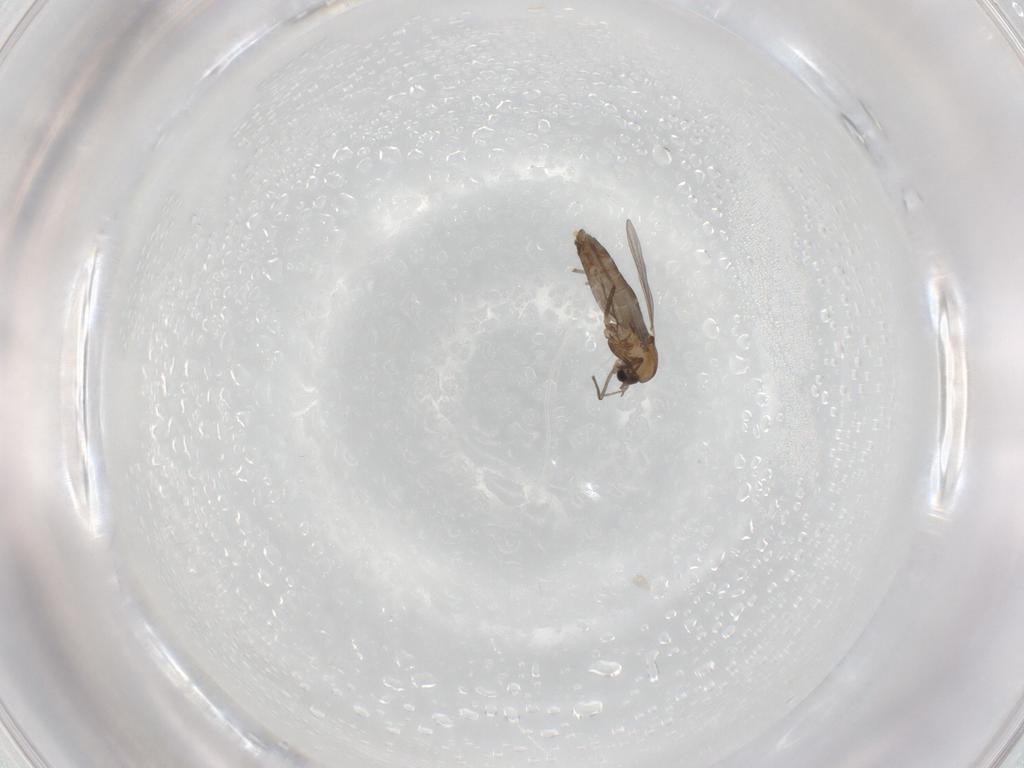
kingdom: Animalia
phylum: Arthropoda
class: Insecta
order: Diptera
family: Chironomidae
